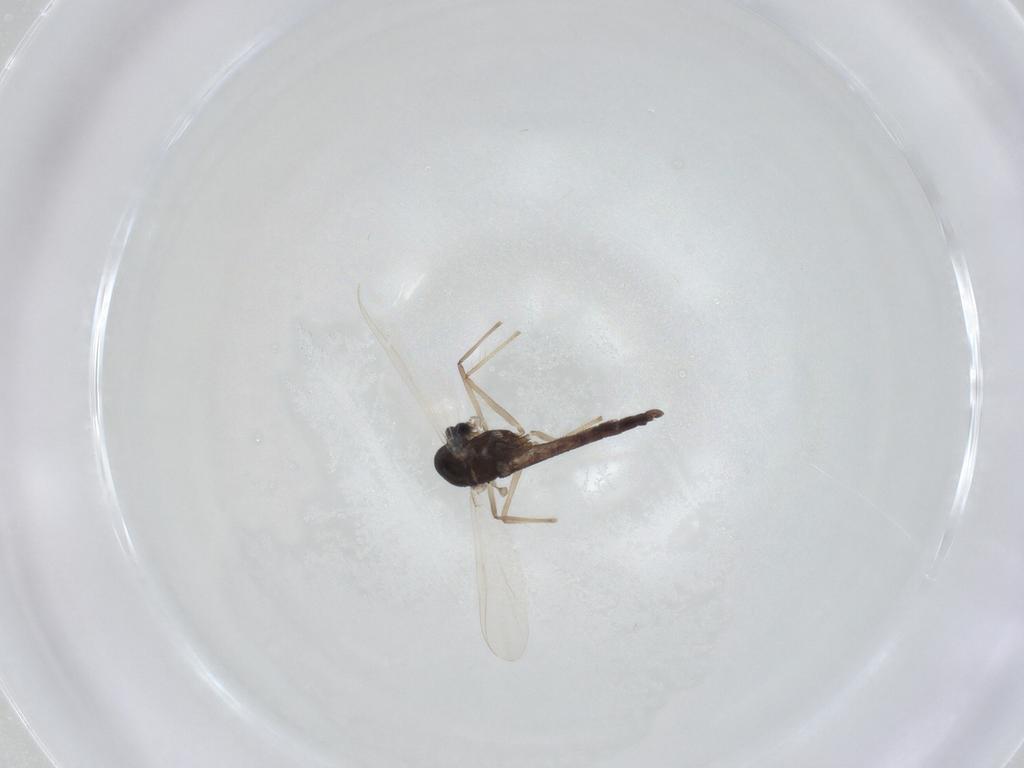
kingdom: Animalia
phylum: Arthropoda
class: Insecta
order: Diptera
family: Chironomidae
